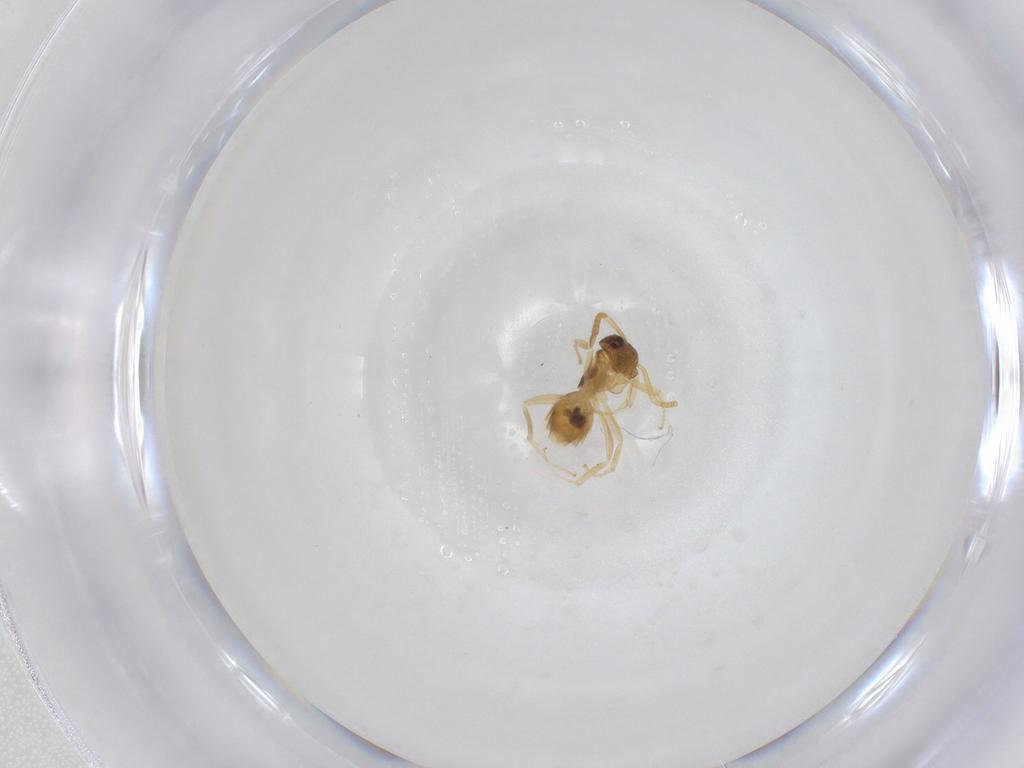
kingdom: Animalia
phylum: Arthropoda
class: Insecta
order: Hymenoptera
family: Formicidae
